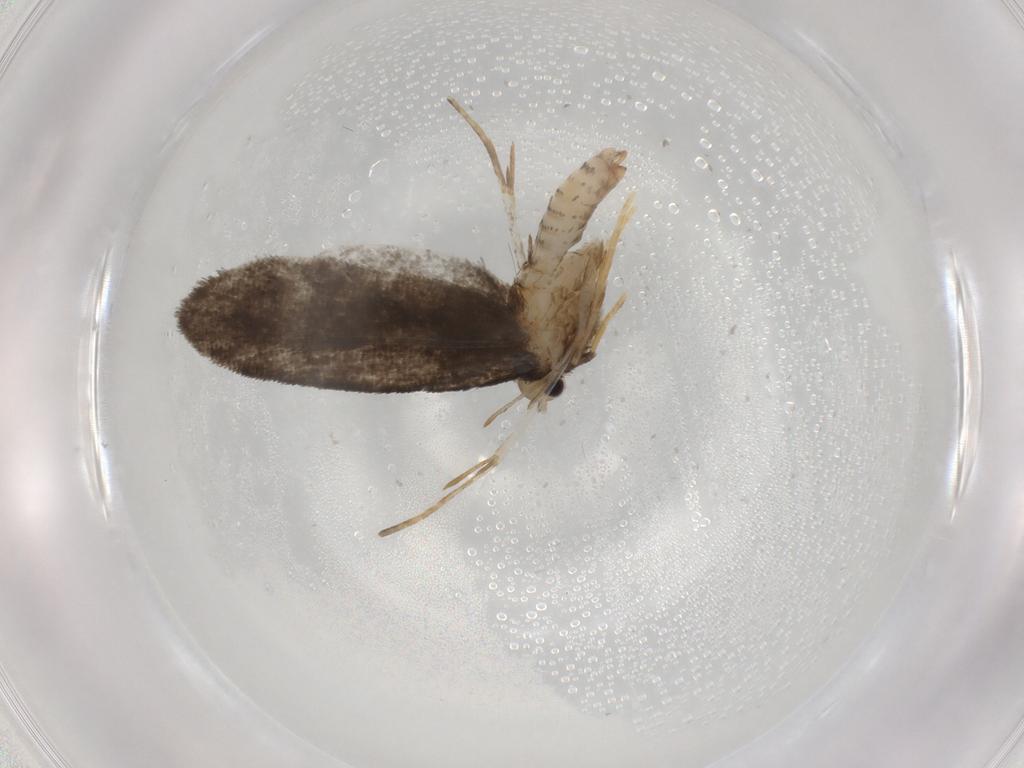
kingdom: Animalia
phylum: Arthropoda
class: Insecta
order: Lepidoptera
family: Psychidae
